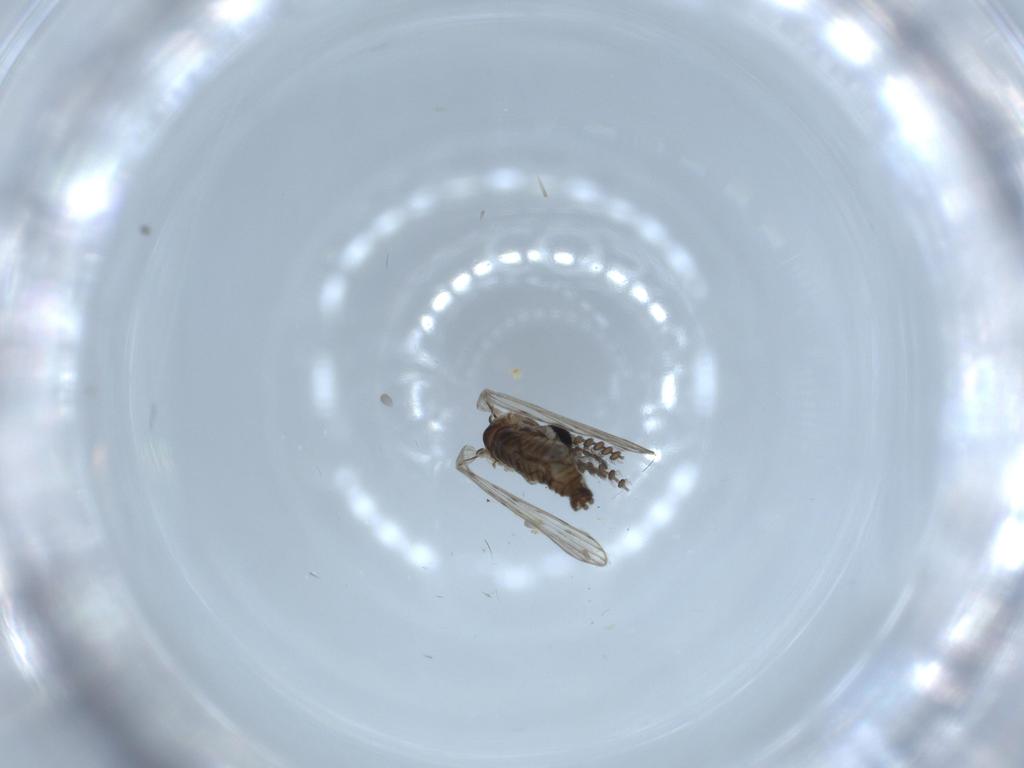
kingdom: Animalia
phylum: Arthropoda
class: Insecta
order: Diptera
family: Psychodidae
